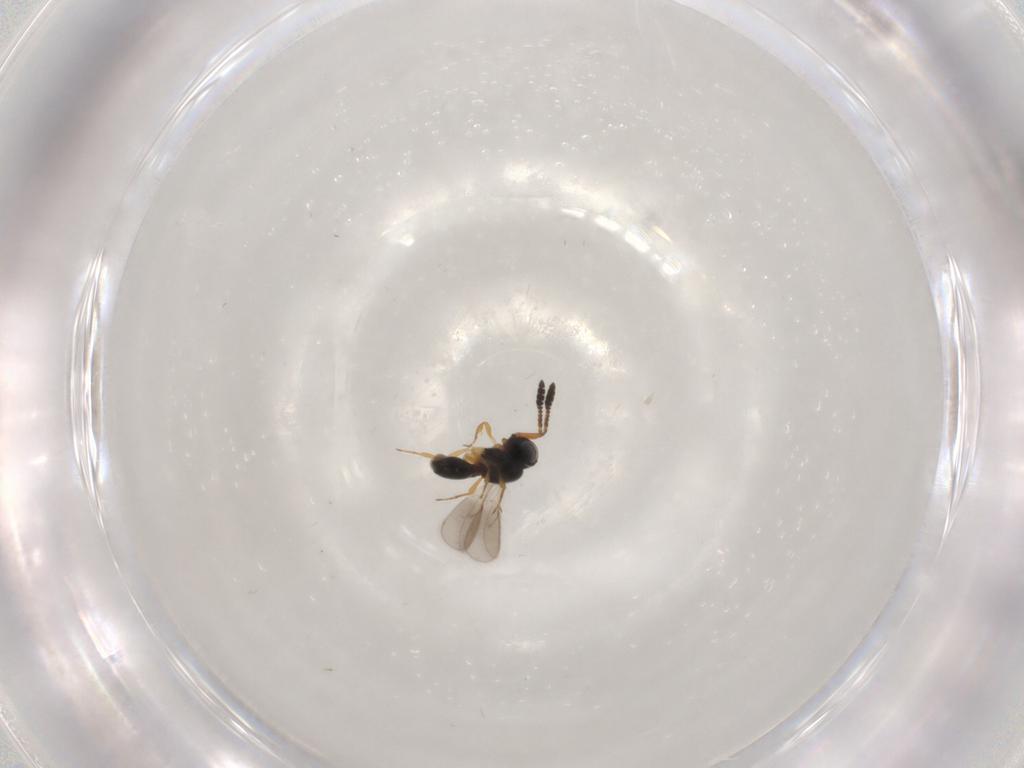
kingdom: Animalia
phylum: Arthropoda
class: Insecta
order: Hymenoptera
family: Scelionidae
